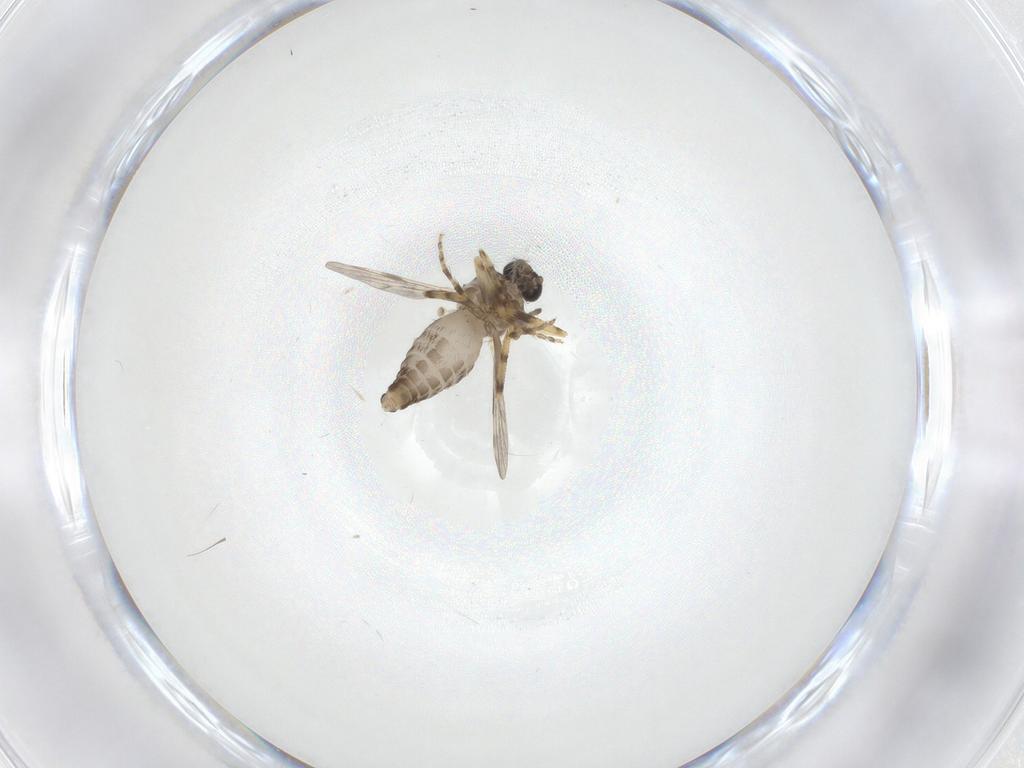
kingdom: Animalia
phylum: Arthropoda
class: Insecta
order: Diptera
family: Ceratopogonidae
